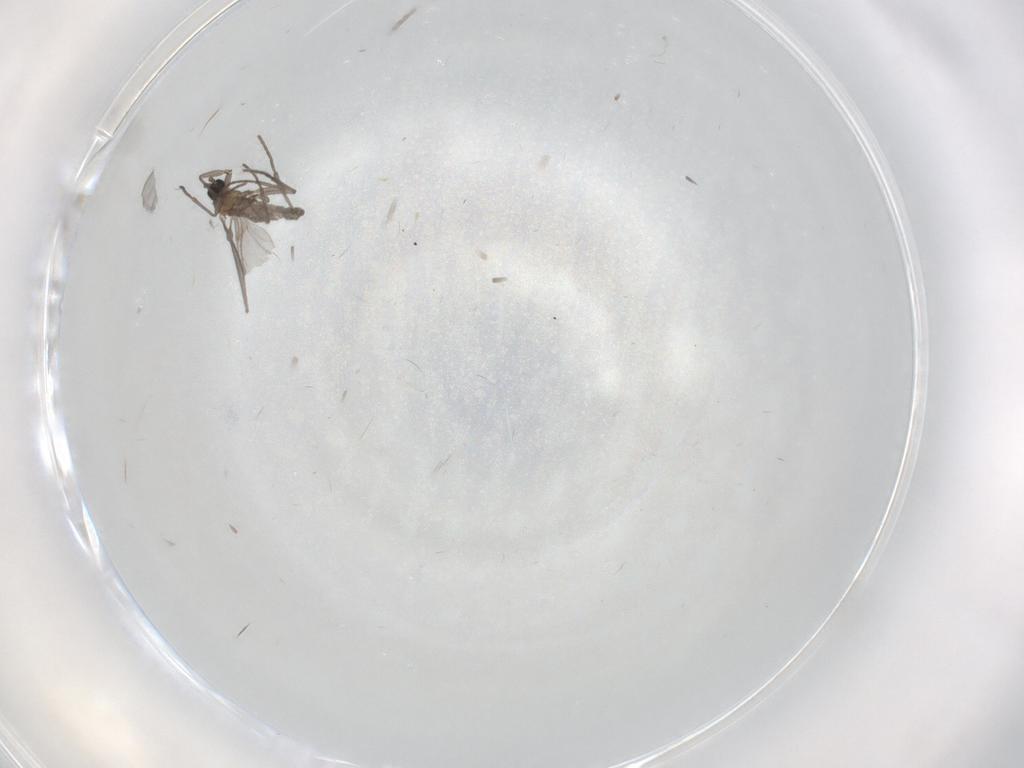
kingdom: Animalia
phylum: Arthropoda
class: Insecta
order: Diptera
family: Sciaridae
